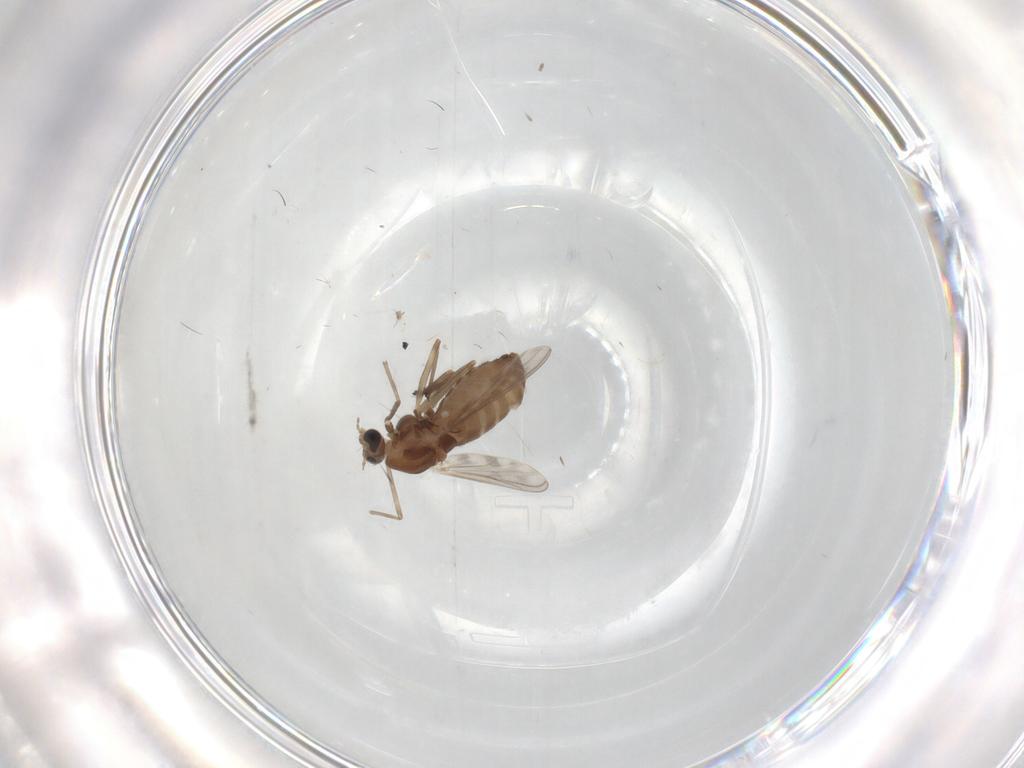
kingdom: Animalia
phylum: Arthropoda
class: Insecta
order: Diptera
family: Chironomidae
